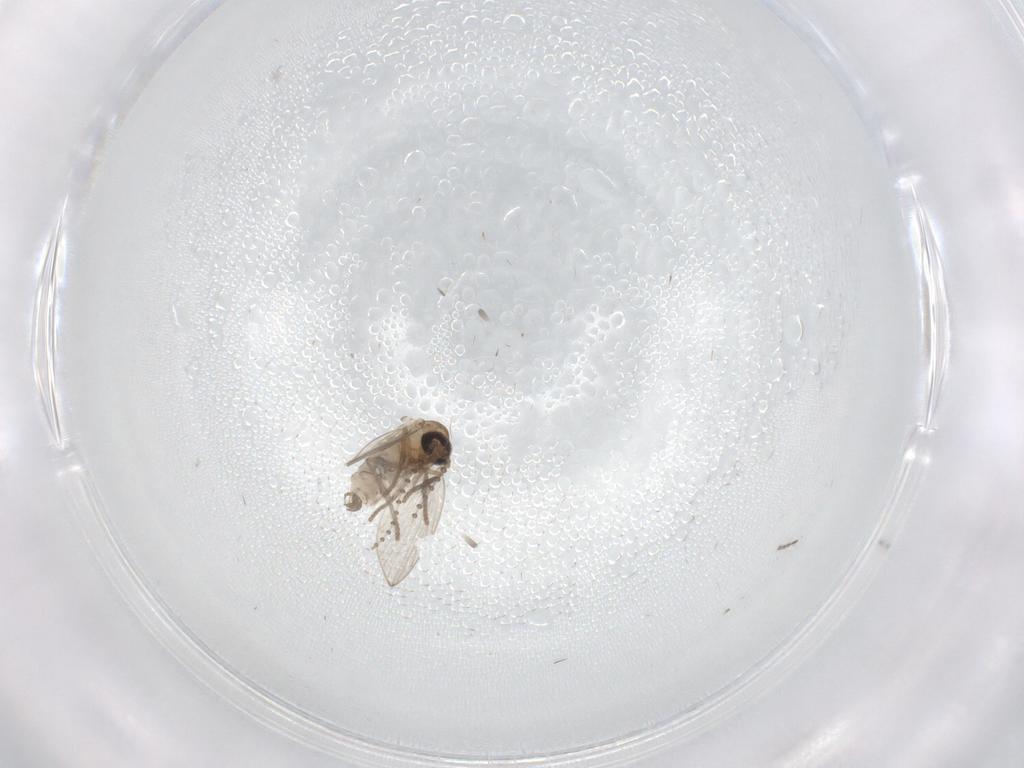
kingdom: Animalia
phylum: Arthropoda
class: Insecta
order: Diptera
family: Psychodidae
